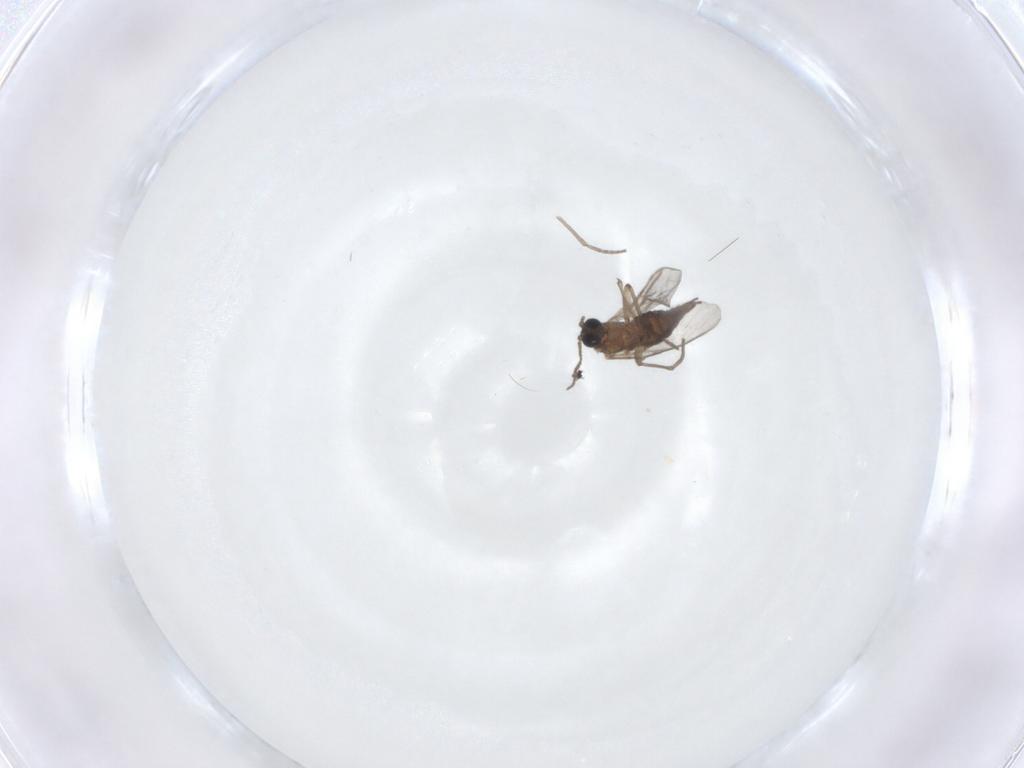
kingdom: Animalia
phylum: Arthropoda
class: Insecta
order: Diptera
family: Sciaridae
